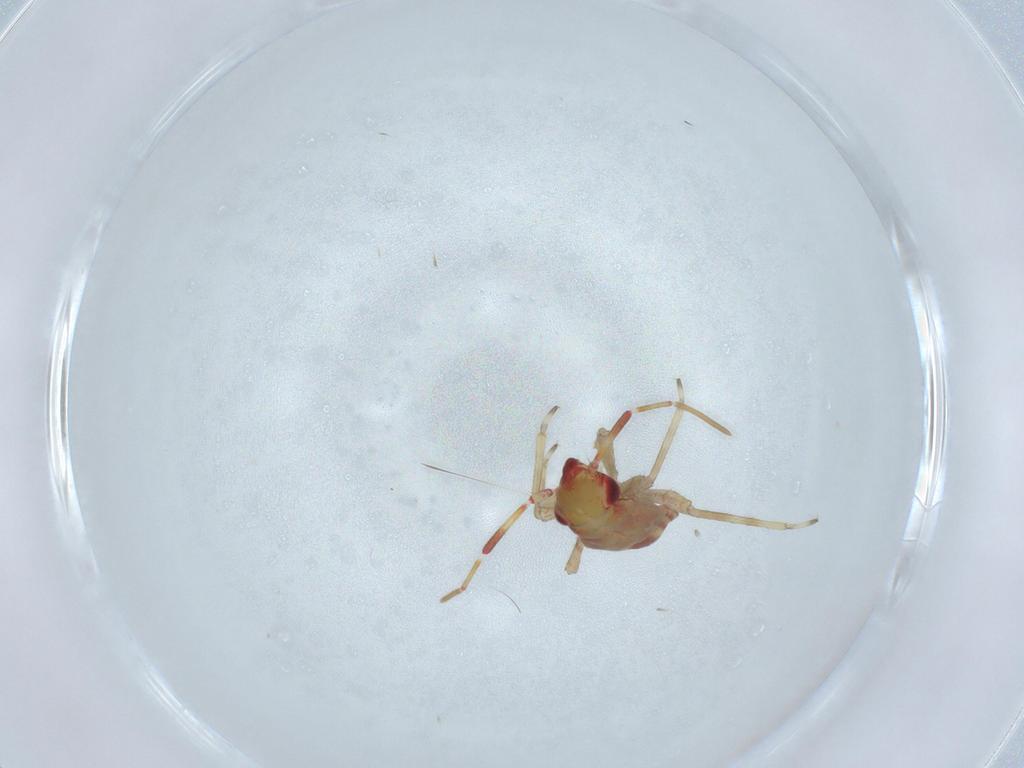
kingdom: Animalia
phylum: Arthropoda
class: Insecta
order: Hemiptera
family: Miridae
